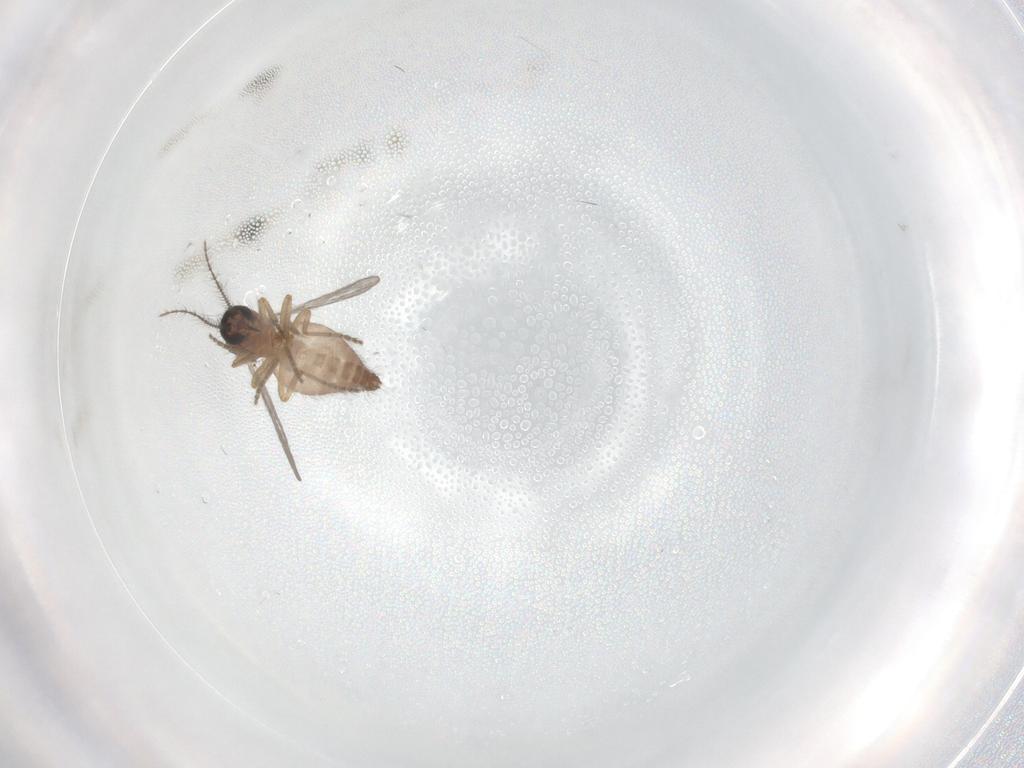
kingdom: Animalia
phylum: Arthropoda
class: Insecta
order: Diptera
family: Ceratopogonidae
